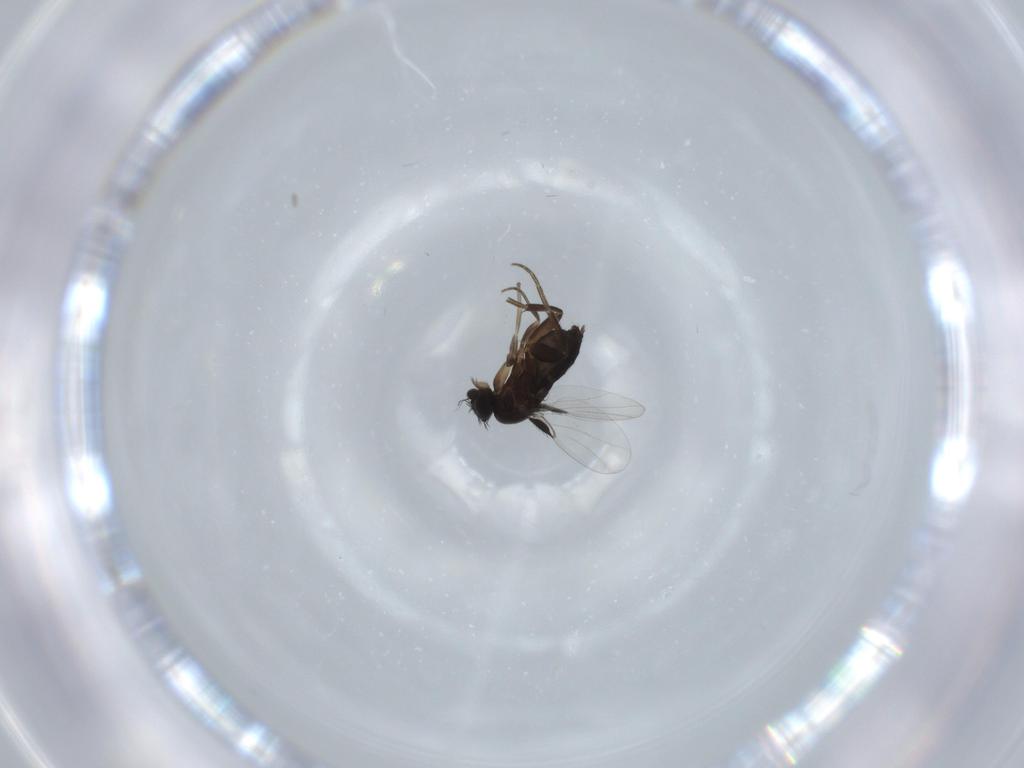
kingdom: Animalia
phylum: Arthropoda
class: Insecta
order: Diptera
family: Phoridae
